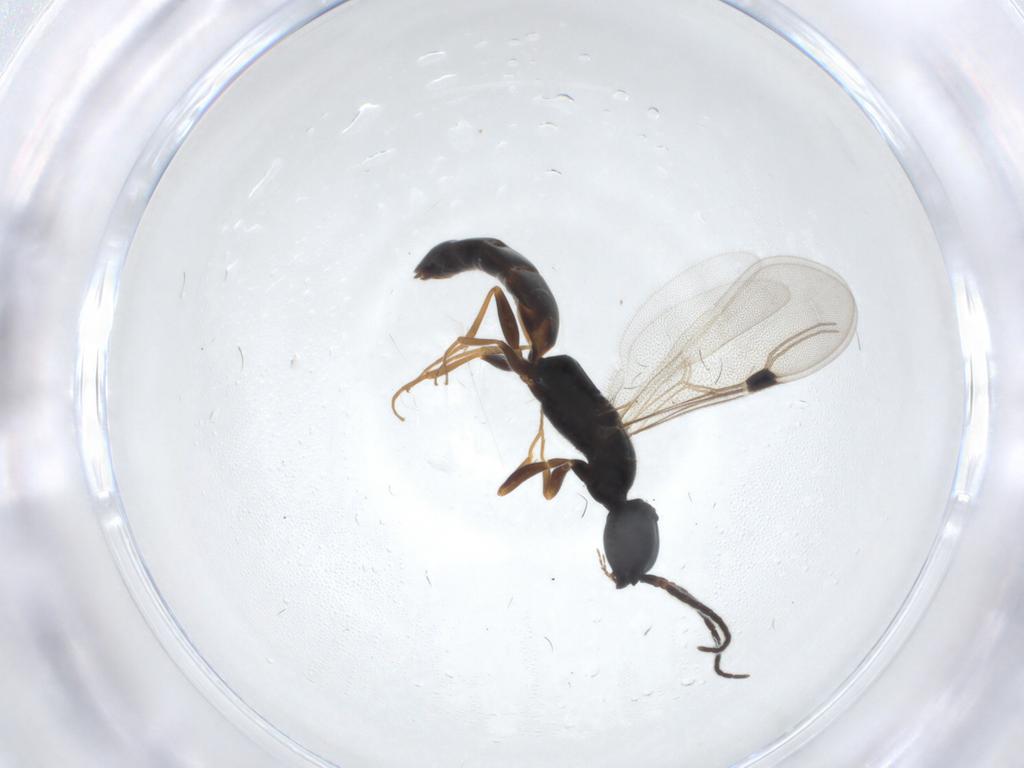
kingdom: Animalia
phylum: Arthropoda
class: Insecta
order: Hymenoptera
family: Bethylidae
